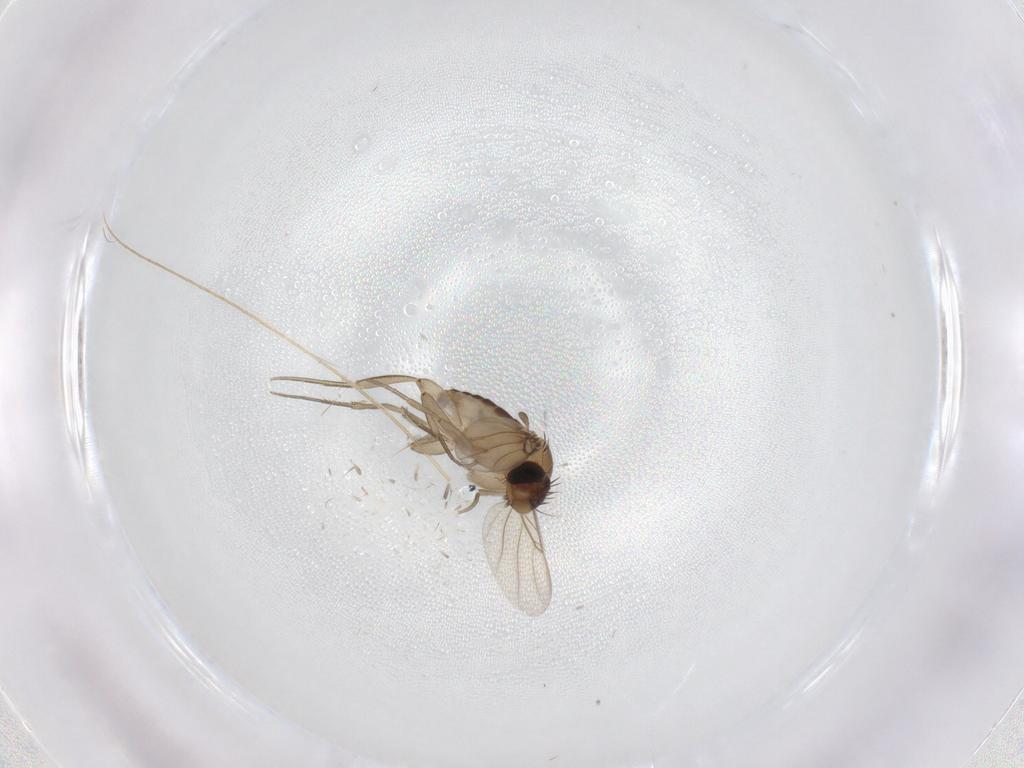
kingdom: Animalia
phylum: Arthropoda
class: Insecta
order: Diptera
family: Phoridae
